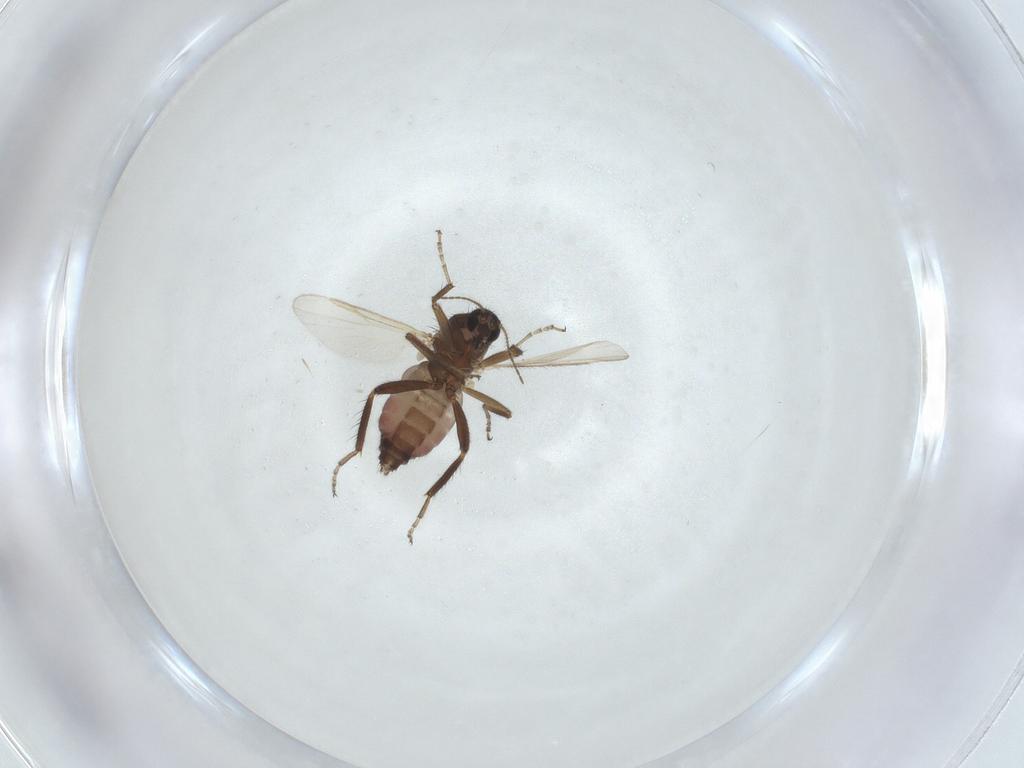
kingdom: Animalia
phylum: Arthropoda
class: Insecta
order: Diptera
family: Ceratopogonidae
